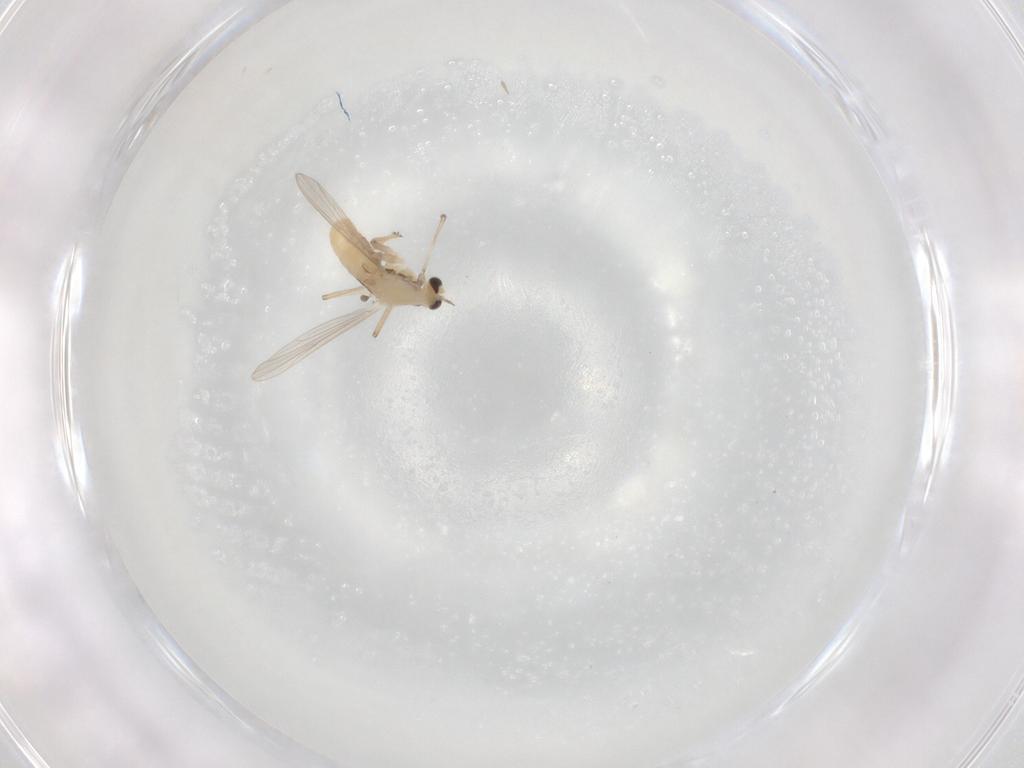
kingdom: Animalia
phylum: Arthropoda
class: Insecta
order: Diptera
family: Chironomidae
